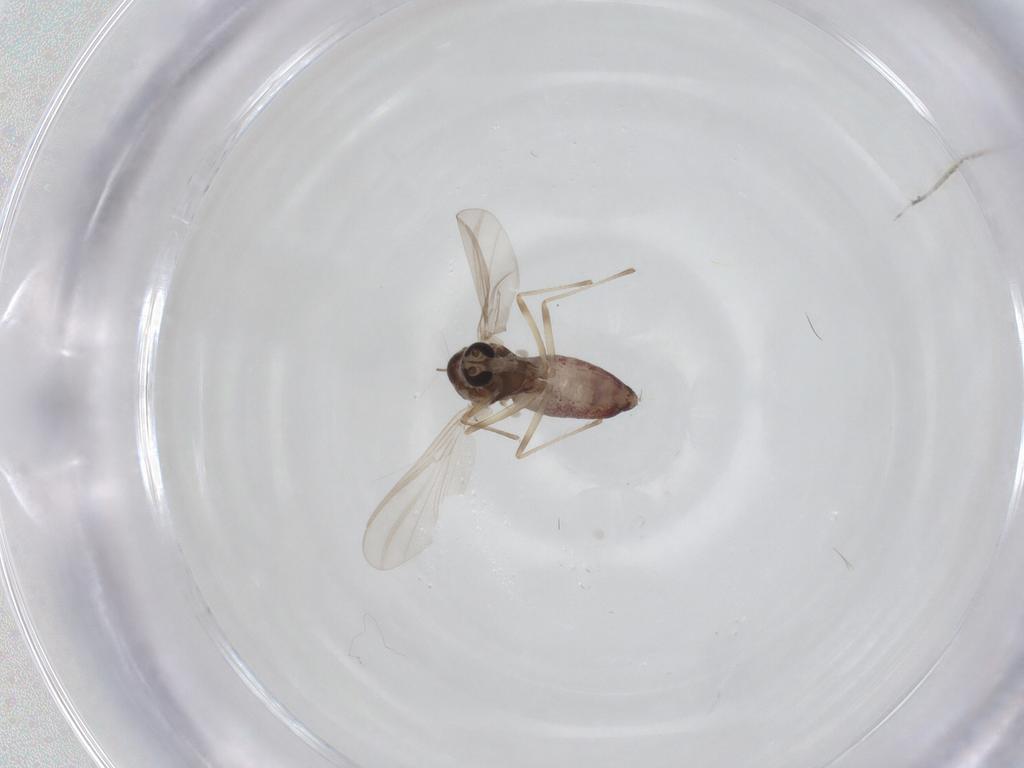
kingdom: Animalia
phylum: Arthropoda
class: Insecta
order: Diptera
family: Chironomidae
